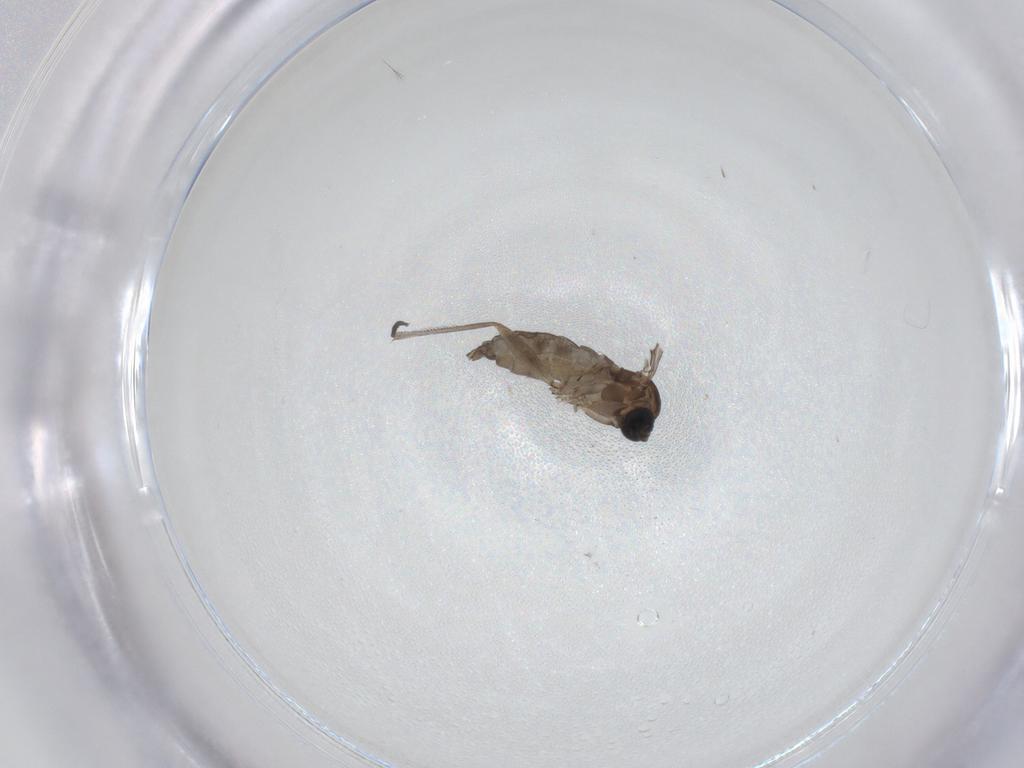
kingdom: Animalia
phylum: Arthropoda
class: Insecta
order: Diptera
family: Sciaridae
